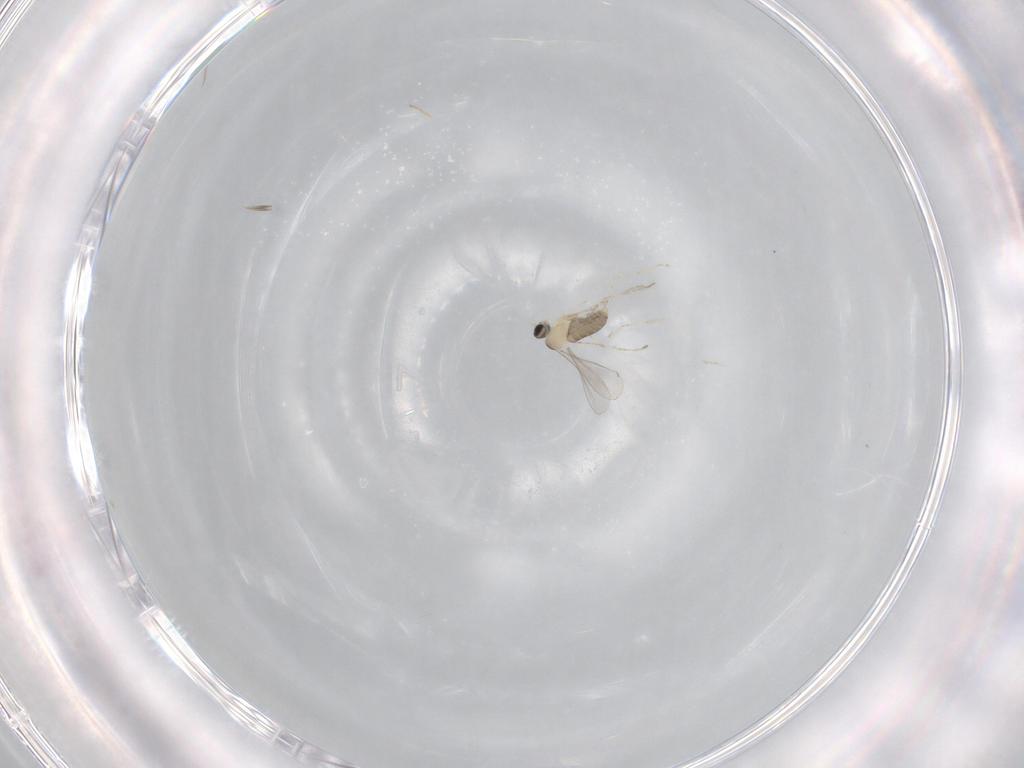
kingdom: Animalia
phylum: Arthropoda
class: Insecta
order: Diptera
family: Cecidomyiidae
